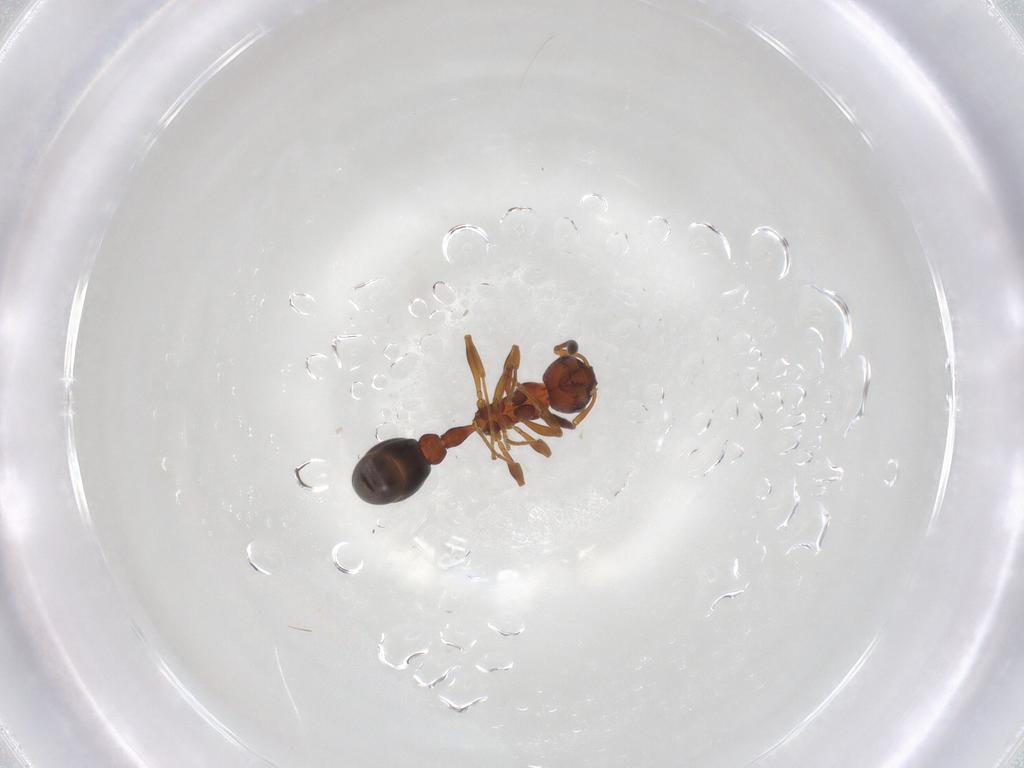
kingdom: Animalia
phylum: Arthropoda
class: Insecta
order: Hymenoptera
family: Formicidae
